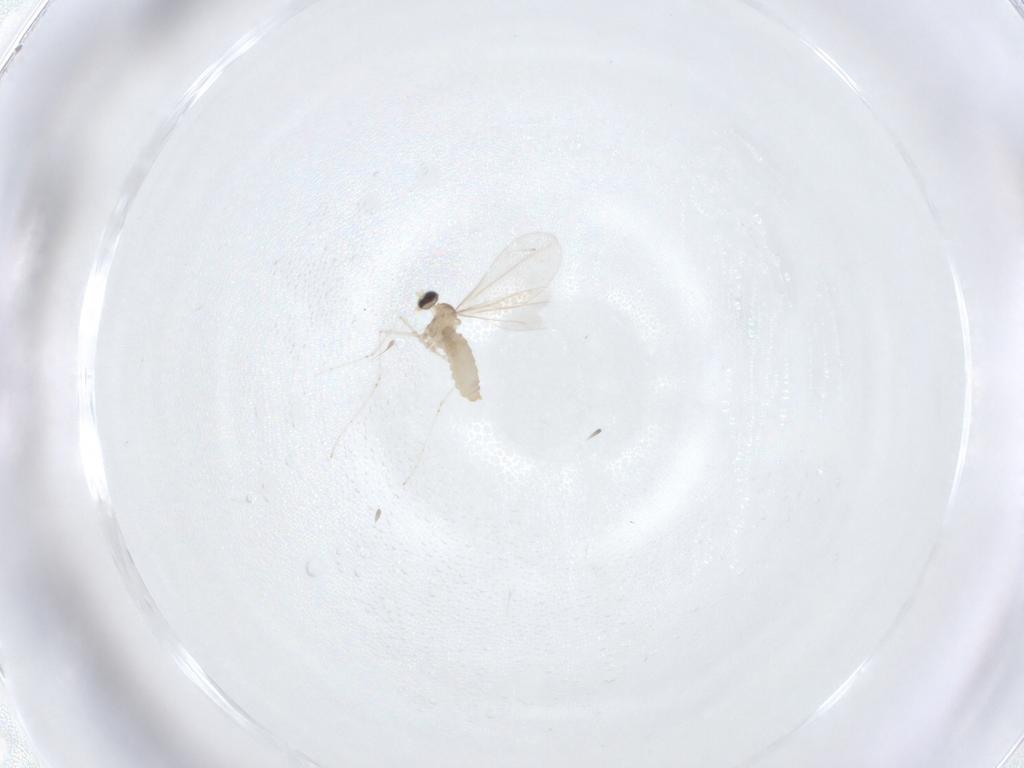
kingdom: Animalia
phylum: Arthropoda
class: Insecta
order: Diptera
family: Cecidomyiidae
